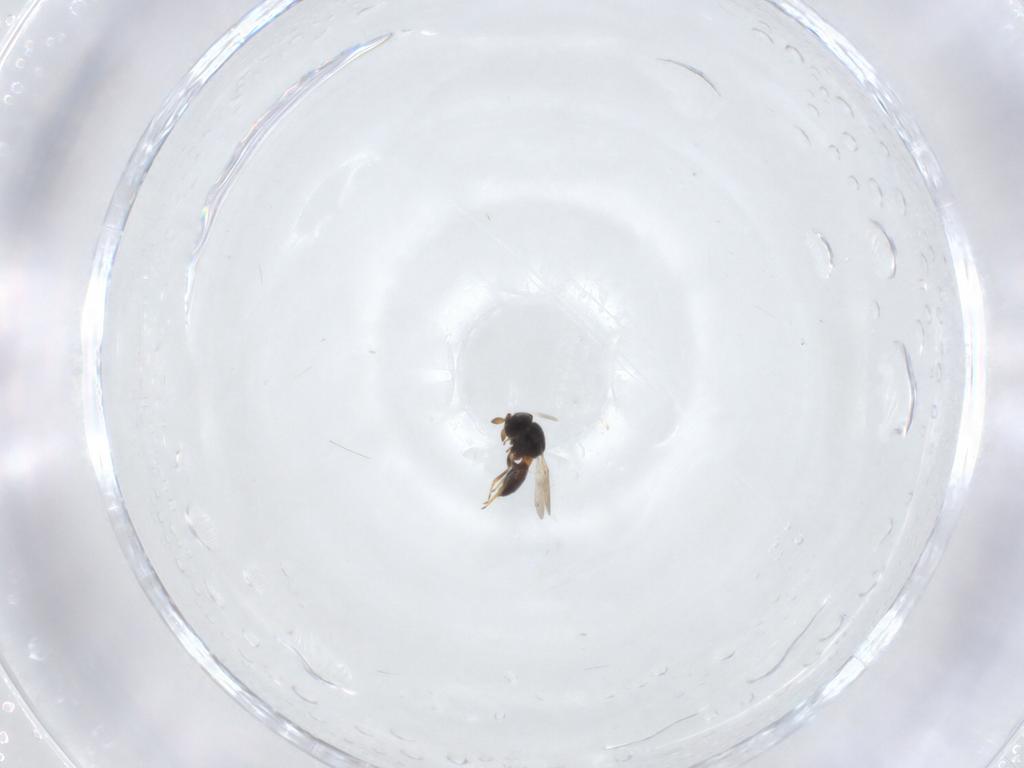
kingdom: Animalia
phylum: Arthropoda
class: Insecta
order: Hymenoptera
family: Scelionidae
